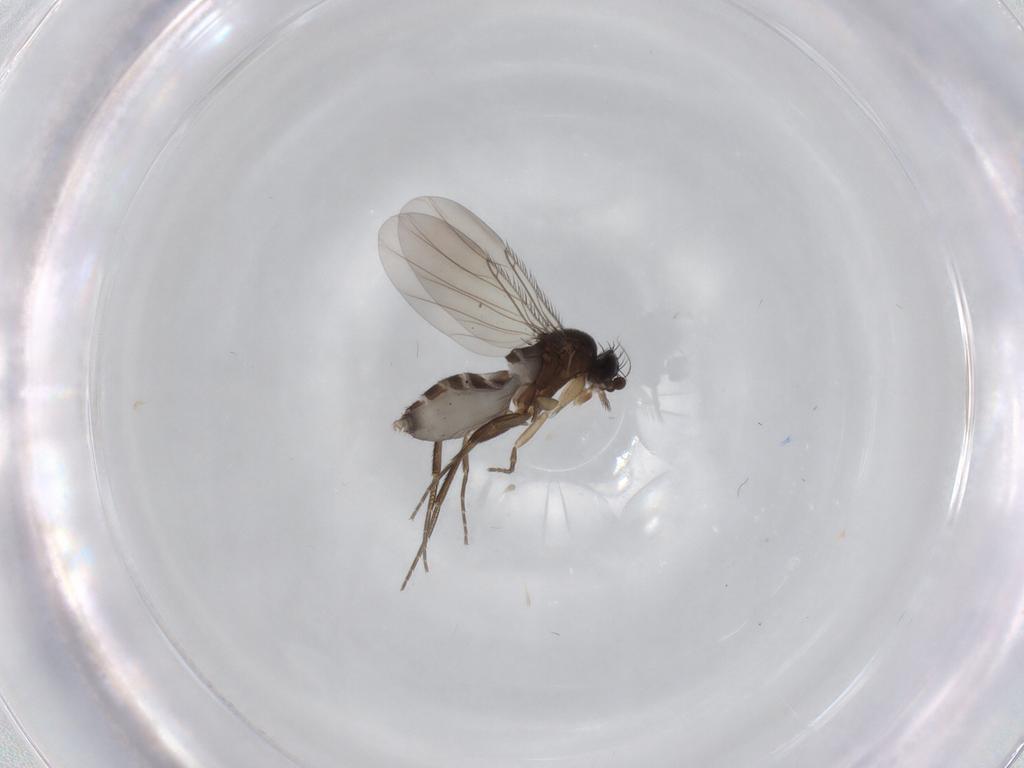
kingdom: Animalia
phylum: Arthropoda
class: Insecta
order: Diptera
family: Phoridae
